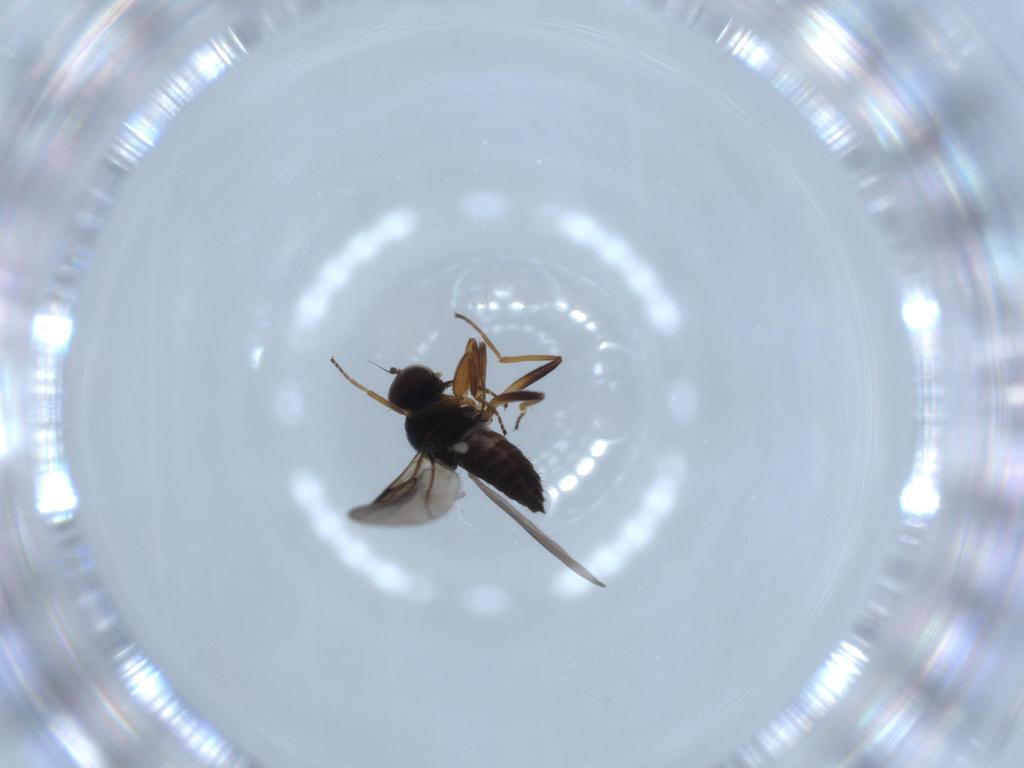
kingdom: Animalia
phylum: Arthropoda
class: Insecta
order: Diptera
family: Hybotidae
